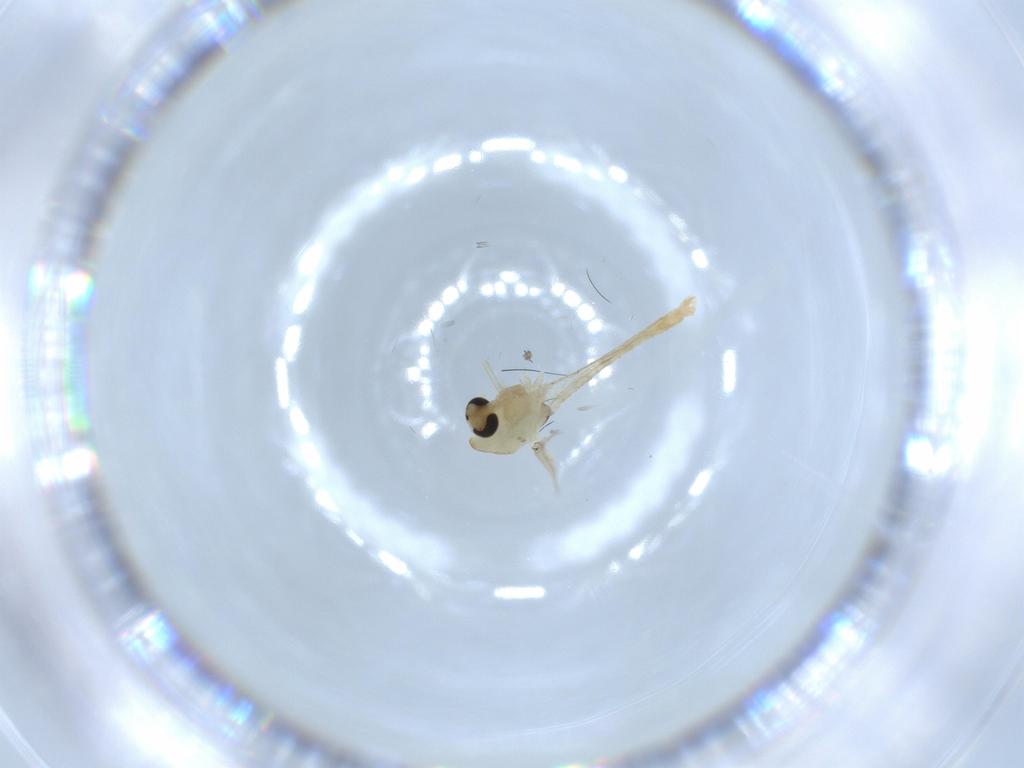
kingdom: Animalia
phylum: Arthropoda
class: Insecta
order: Diptera
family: Chironomidae
